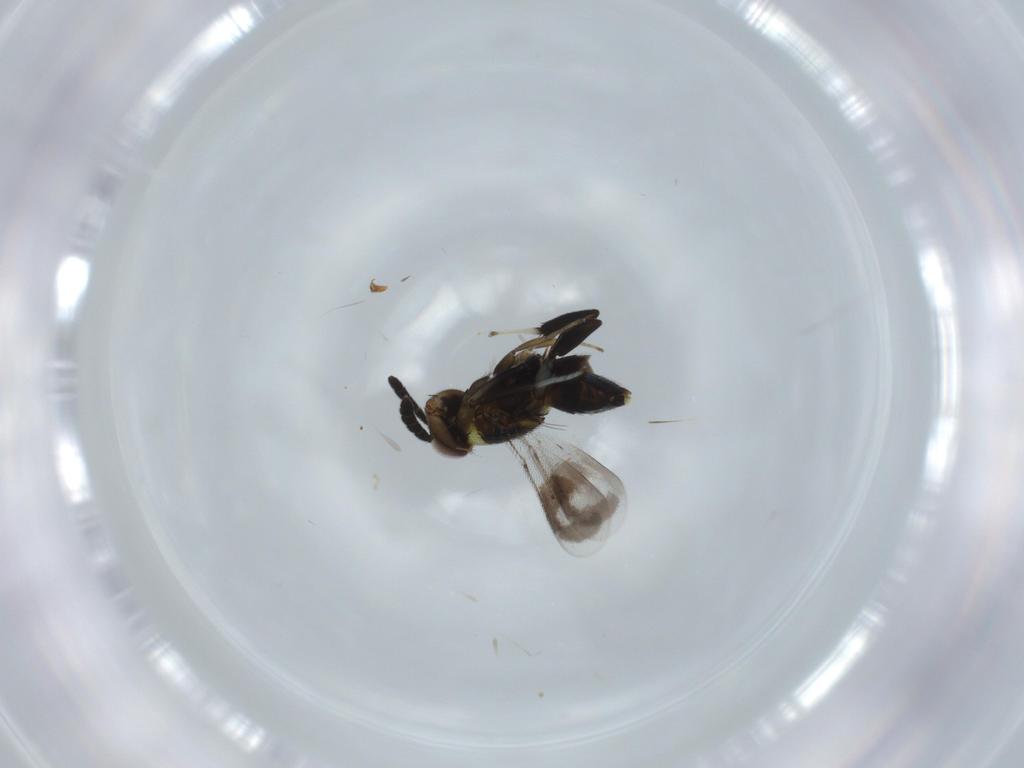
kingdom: Animalia
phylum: Arthropoda
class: Insecta
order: Hymenoptera
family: Aphelinidae
